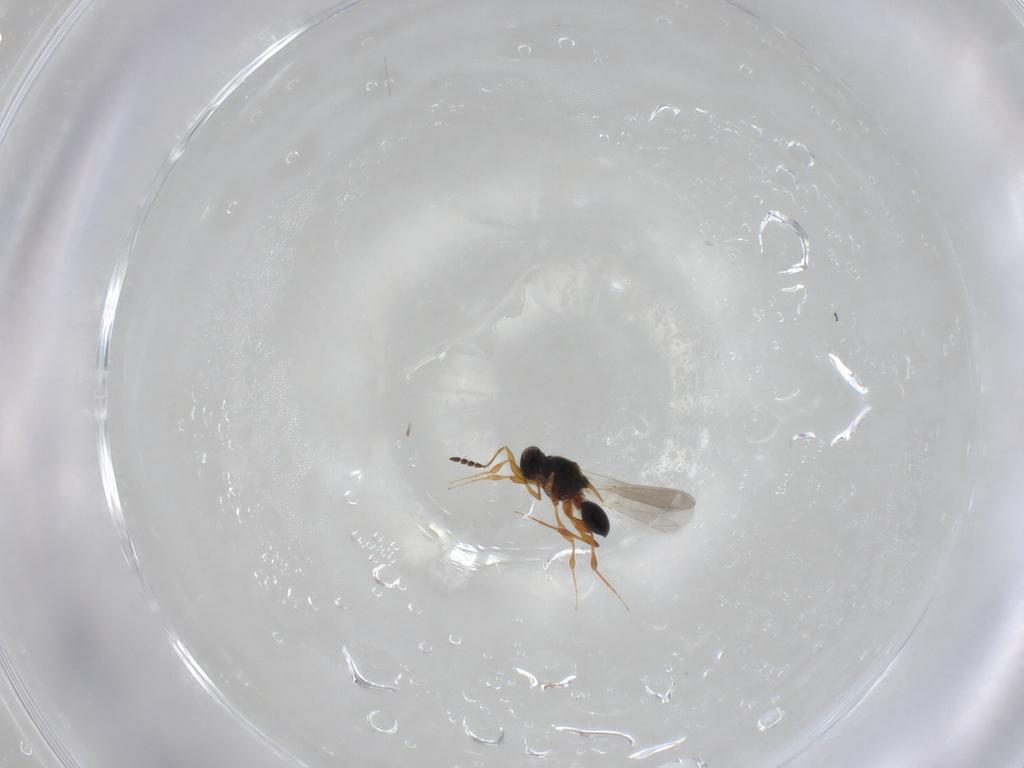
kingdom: Animalia
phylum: Arthropoda
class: Insecta
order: Hymenoptera
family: Platygastridae
